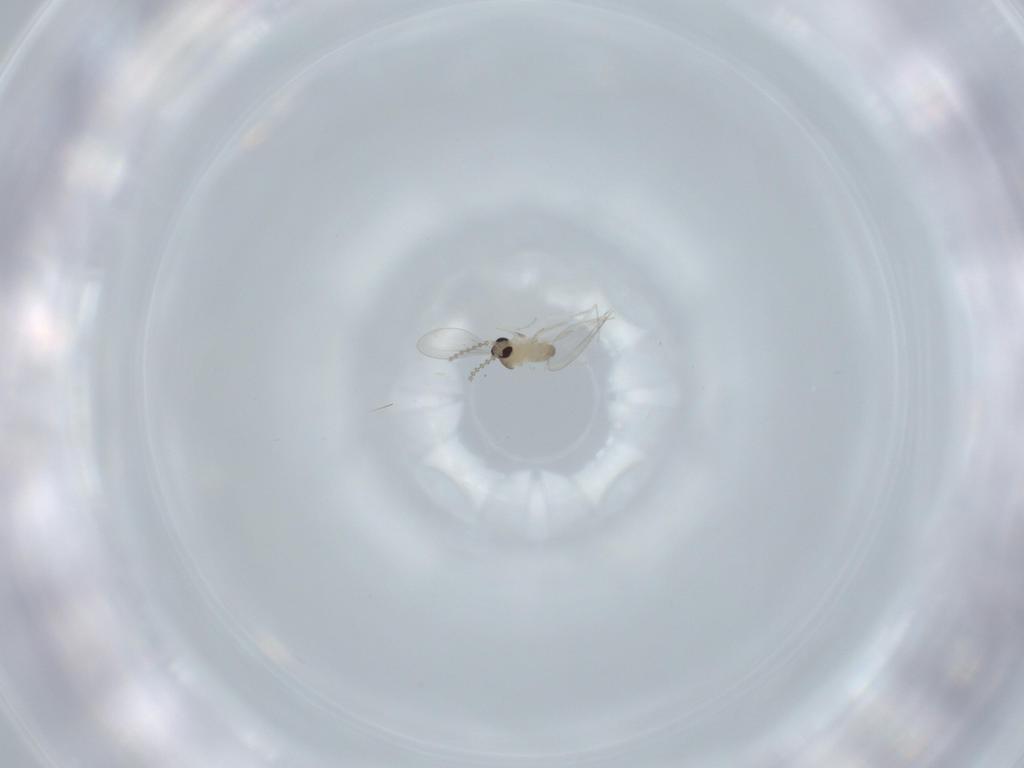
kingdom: Animalia
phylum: Arthropoda
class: Insecta
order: Diptera
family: Cecidomyiidae
